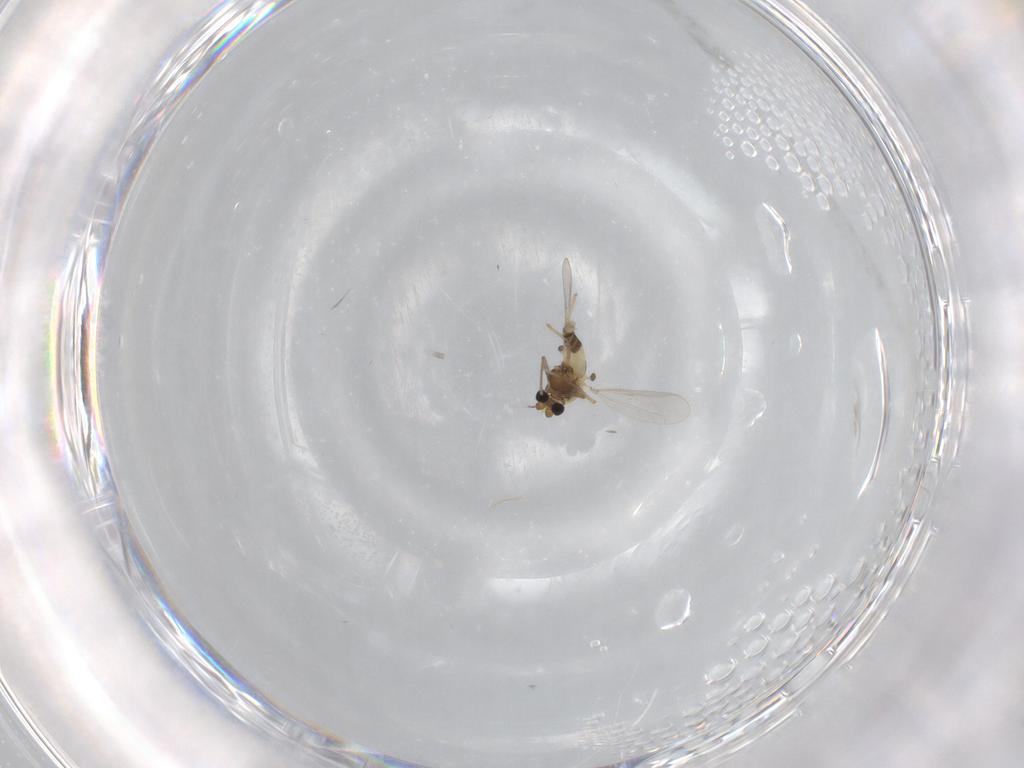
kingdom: Animalia
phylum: Arthropoda
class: Insecta
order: Diptera
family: Chironomidae
